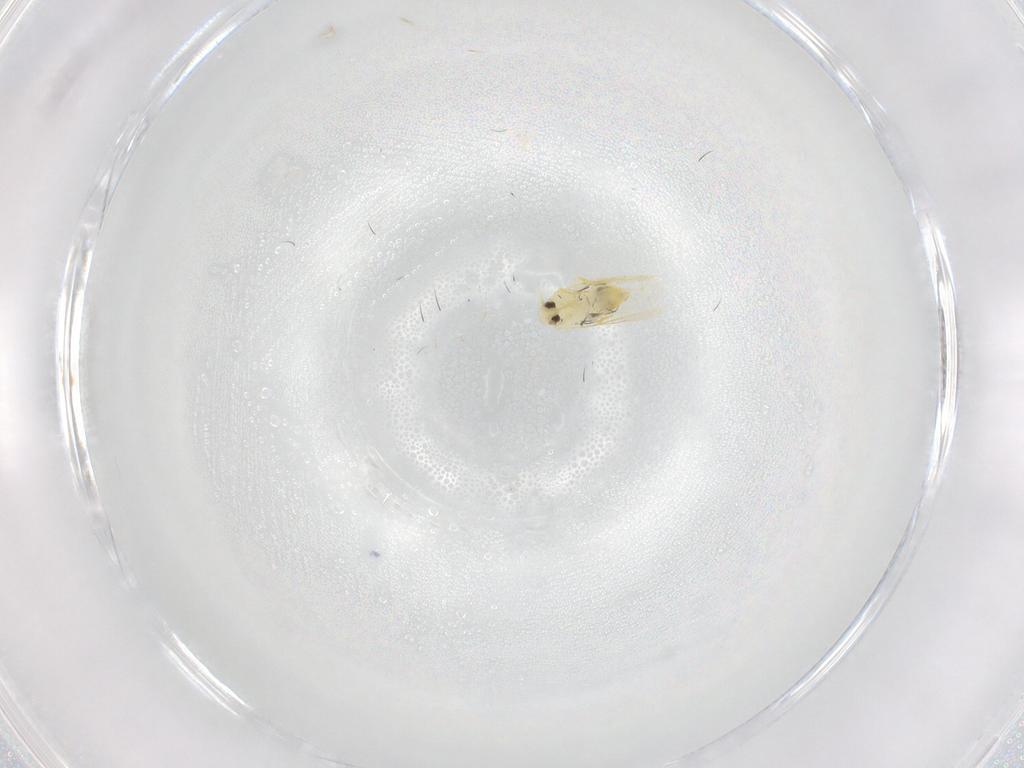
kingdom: Animalia
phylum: Arthropoda
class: Insecta
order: Hemiptera
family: Aleyrodidae
